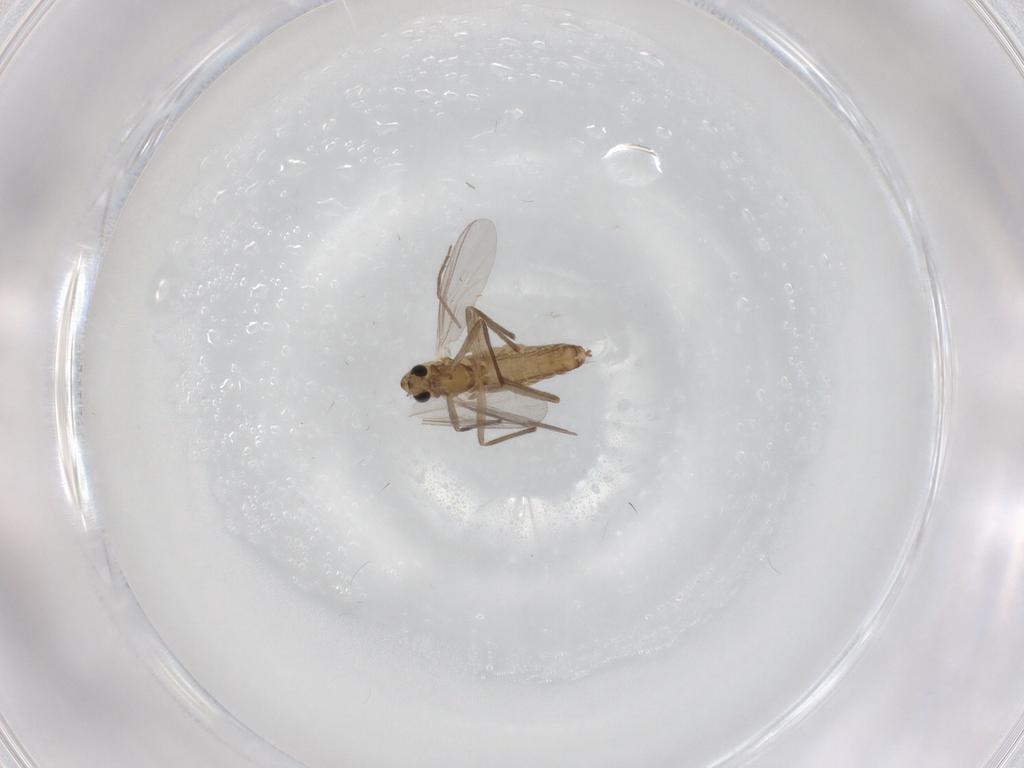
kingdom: Animalia
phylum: Arthropoda
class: Insecta
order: Diptera
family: Chironomidae
